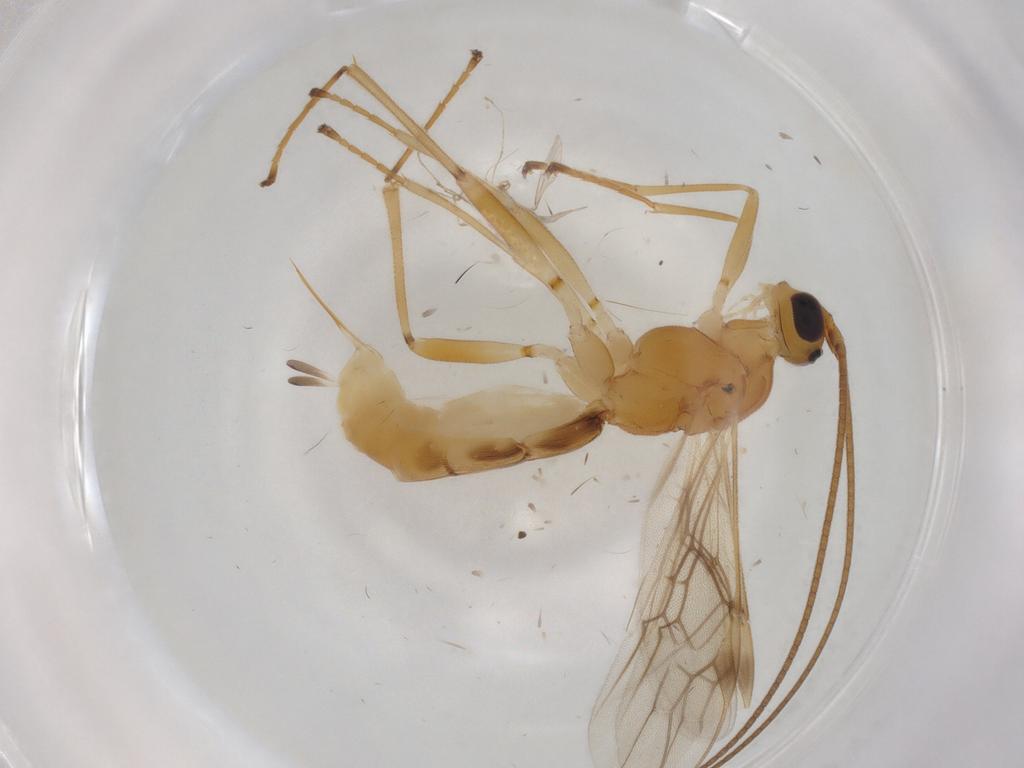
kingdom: Animalia
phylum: Arthropoda
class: Insecta
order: Hymenoptera
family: Braconidae
